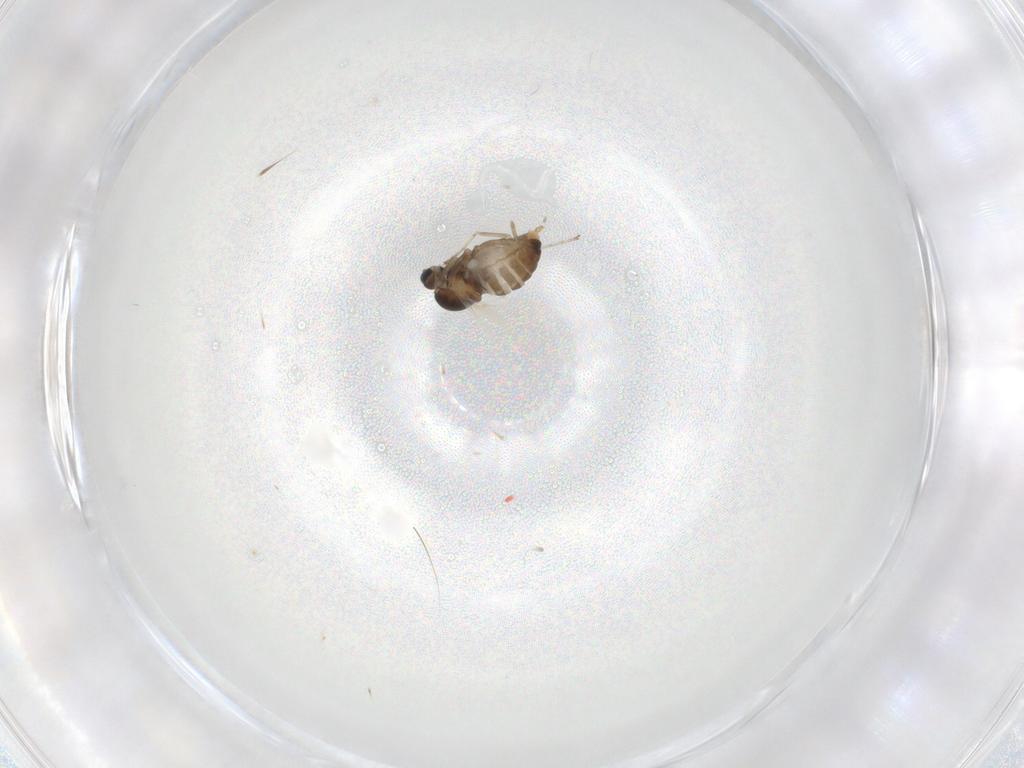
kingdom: Animalia
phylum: Arthropoda
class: Insecta
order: Diptera
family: Cecidomyiidae
